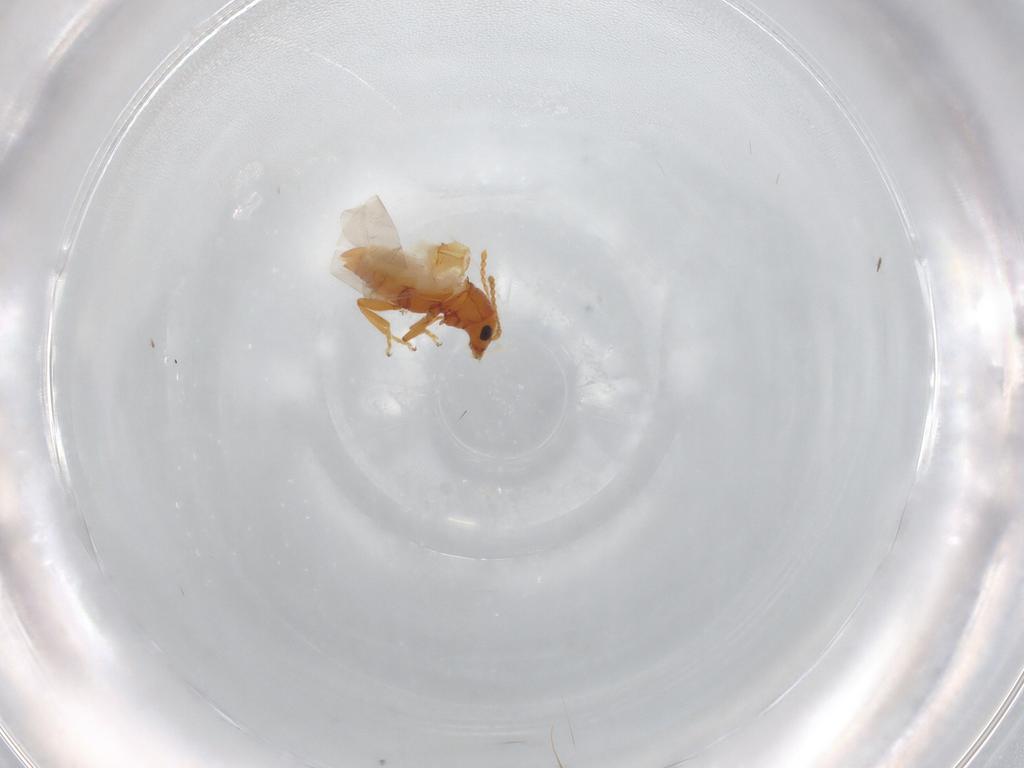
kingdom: Animalia
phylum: Arthropoda
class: Insecta
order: Coleoptera
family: Chrysomelidae
